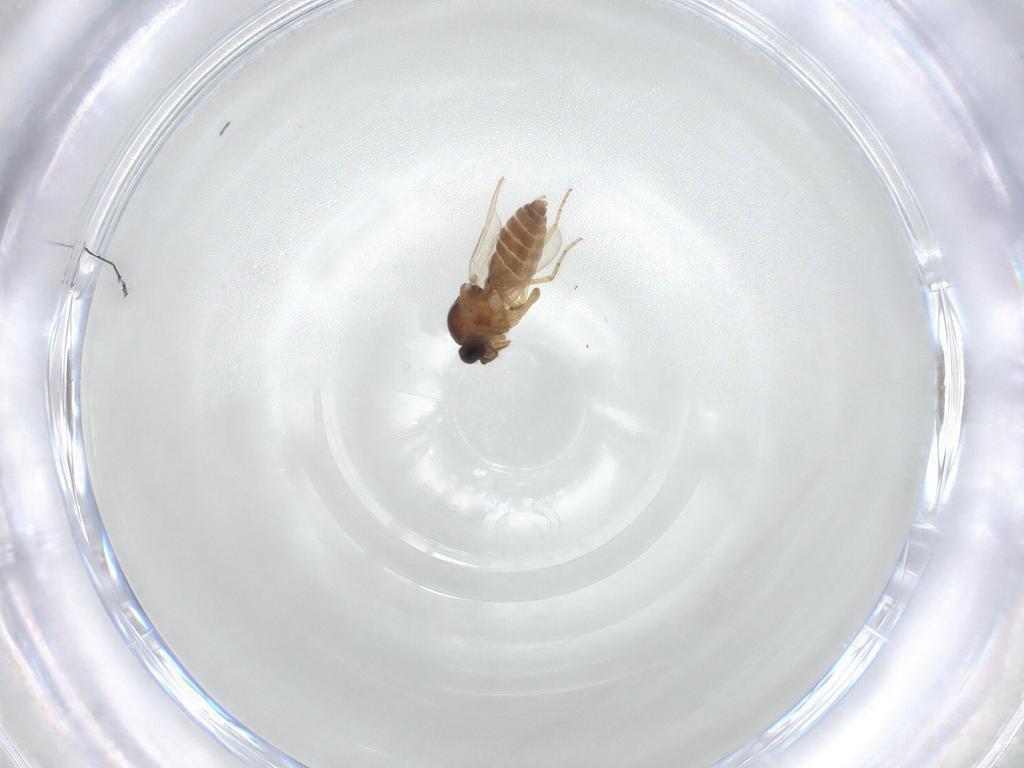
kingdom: Animalia
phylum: Arthropoda
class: Insecta
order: Diptera
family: Ceratopogonidae
